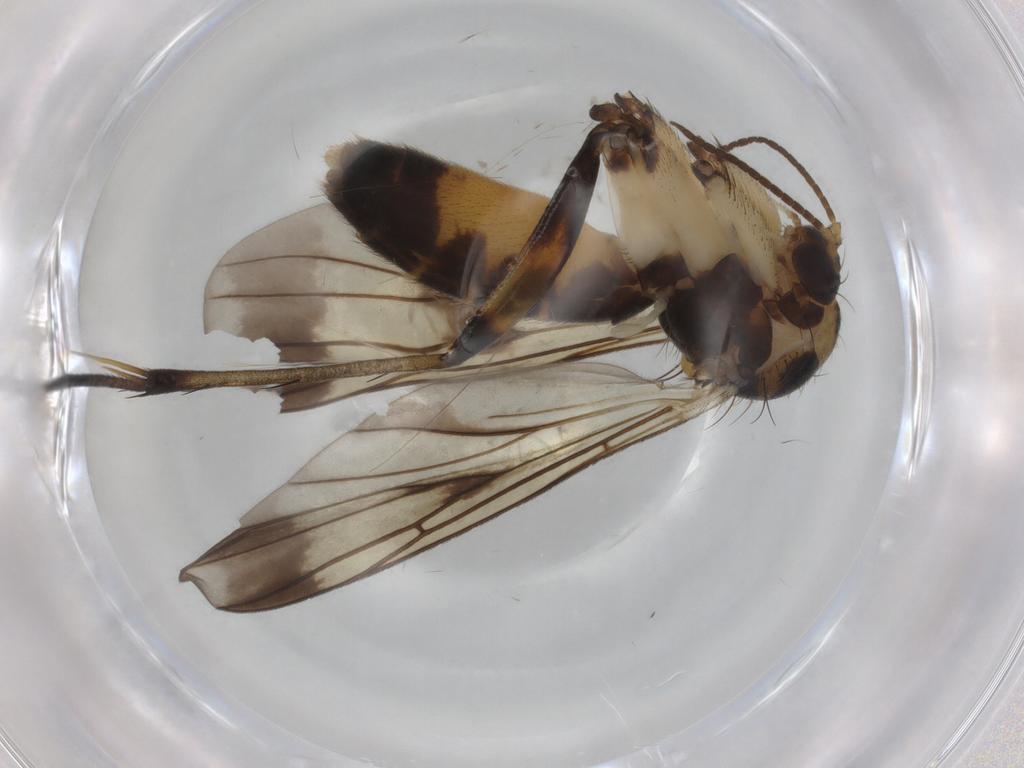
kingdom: Animalia
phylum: Arthropoda
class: Insecta
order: Diptera
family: Mycetophilidae
